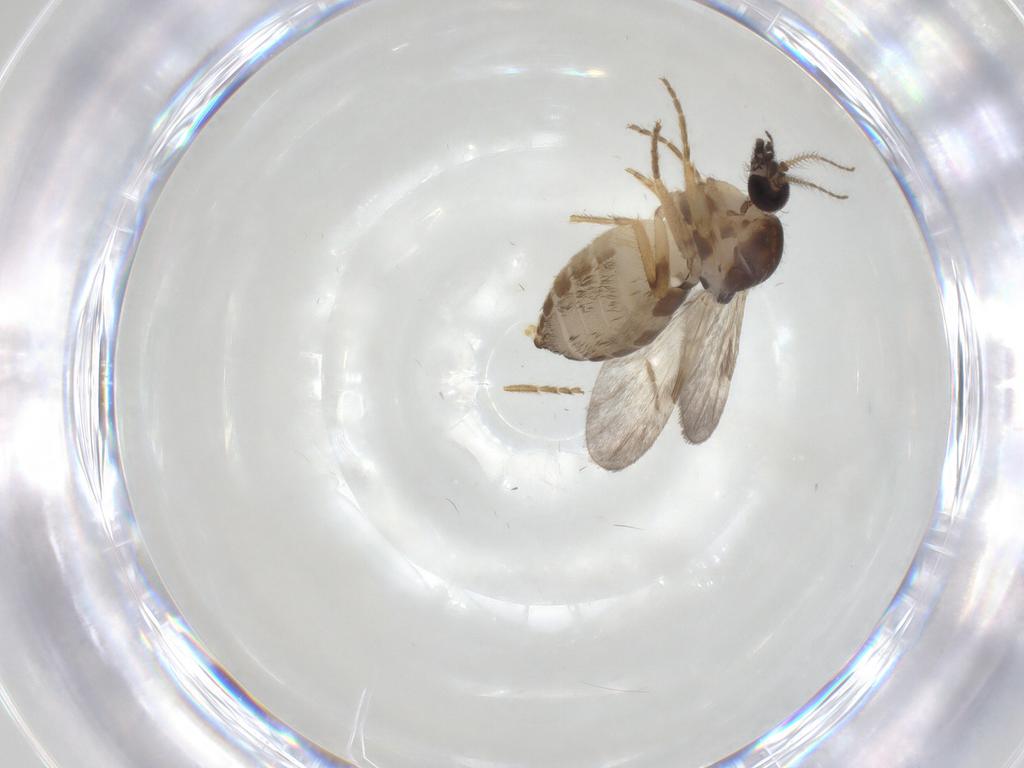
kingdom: Animalia
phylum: Arthropoda
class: Insecta
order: Diptera
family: Ceratopogonidae
